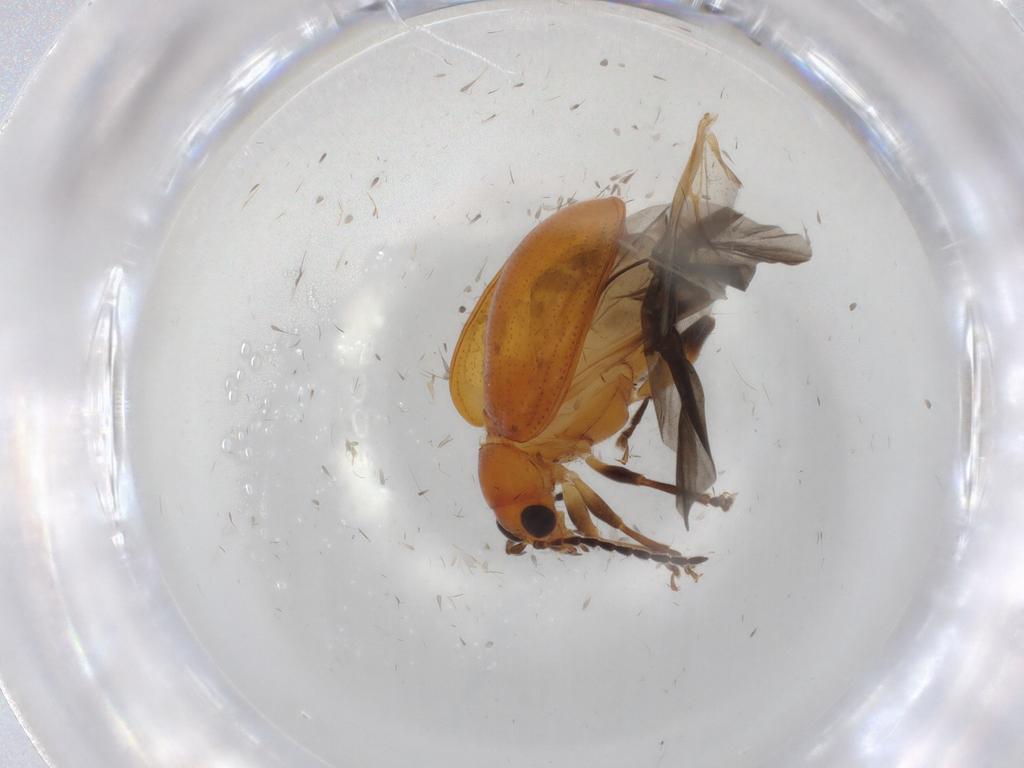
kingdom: Animalia
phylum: Arthropoda
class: Insecta
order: Coleoptera
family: Chrysomelidae
